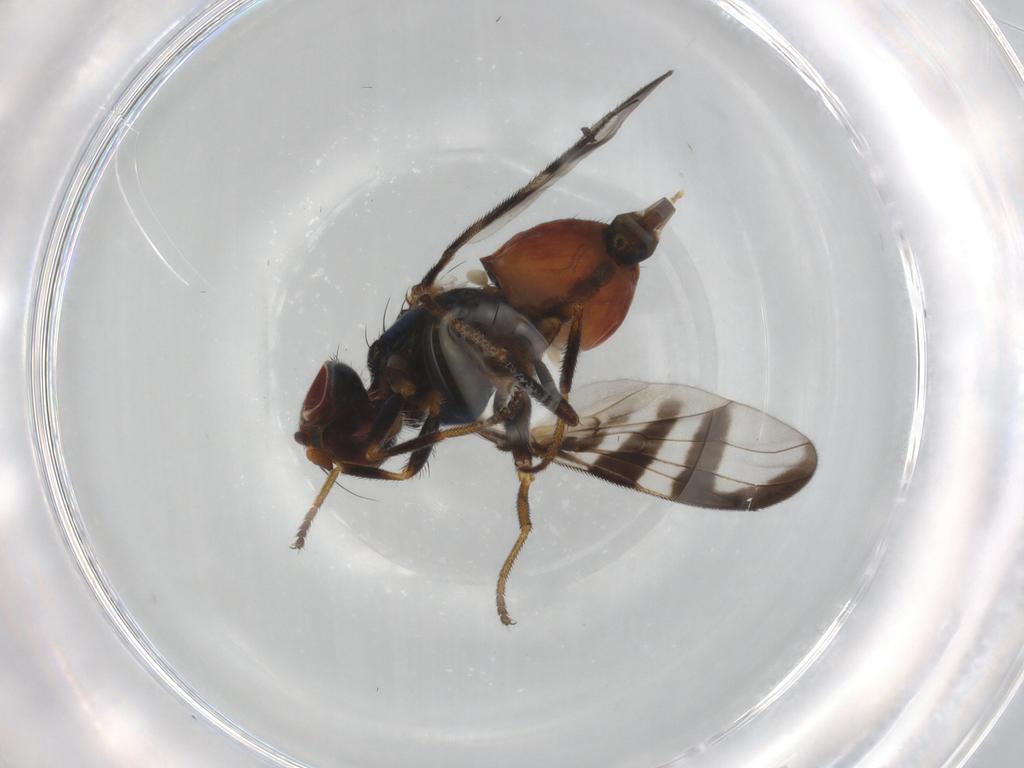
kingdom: Animalia
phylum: Arthropoda
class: Insecta
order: Diptera
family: Platystomatidae
